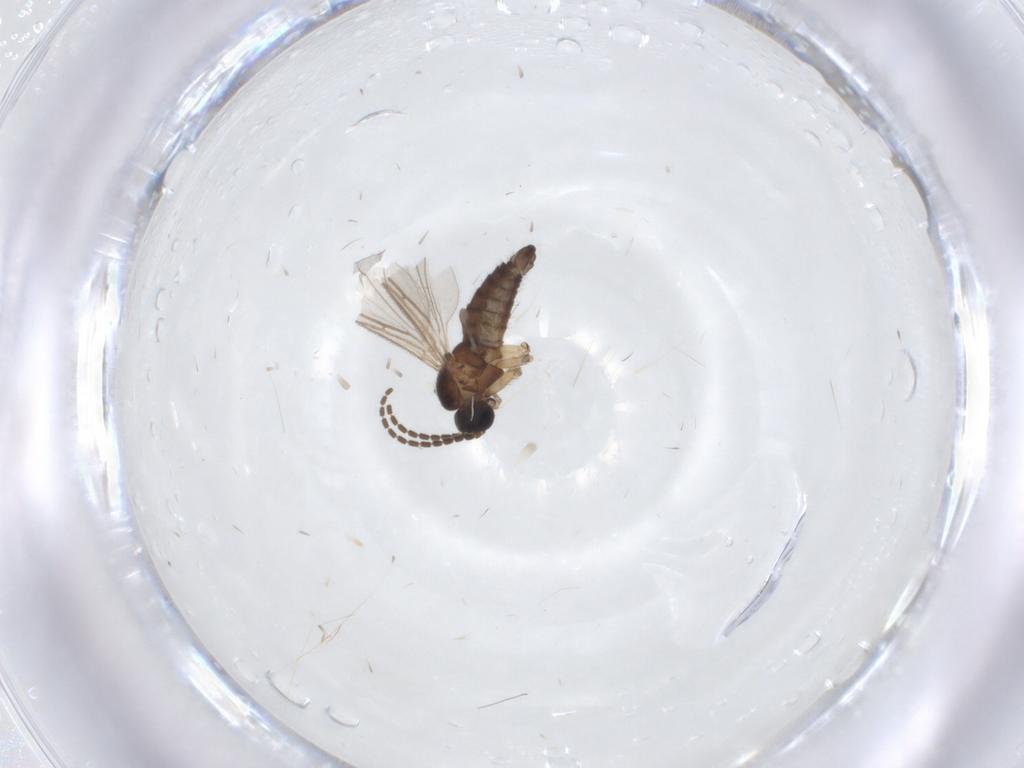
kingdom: Animalia
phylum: Arthropoda
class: Insecta
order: Diptera
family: Sciaridae
